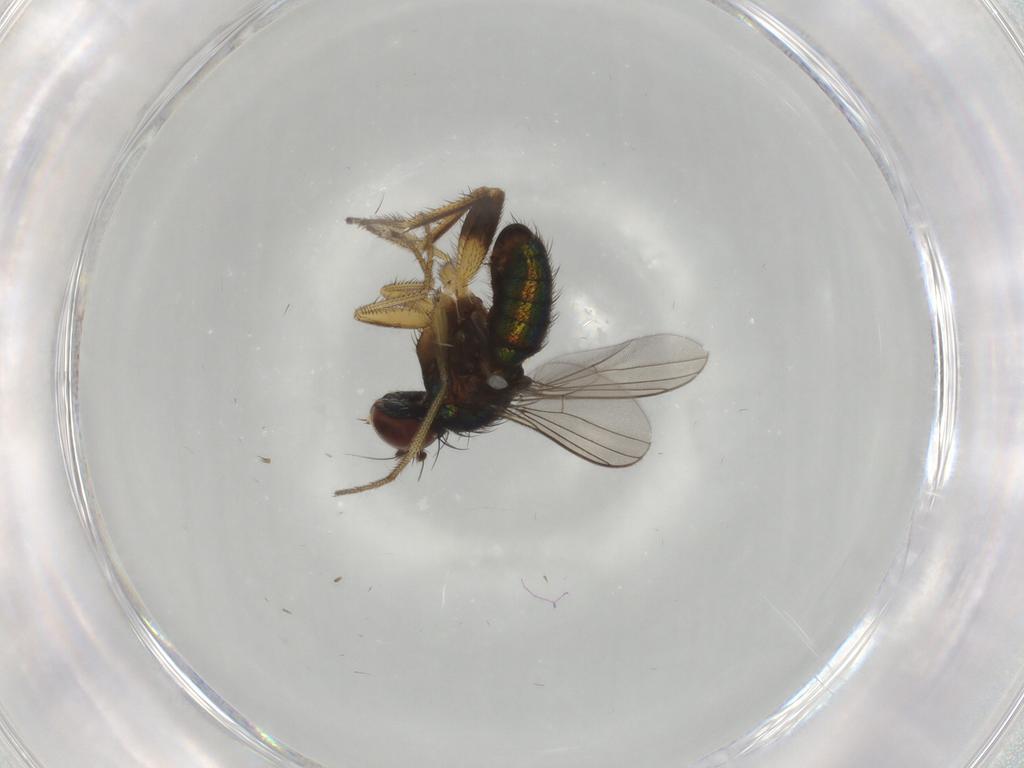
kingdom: Animalia
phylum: Arthropoda
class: Insecta
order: Diptera
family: Dolichopodidae
